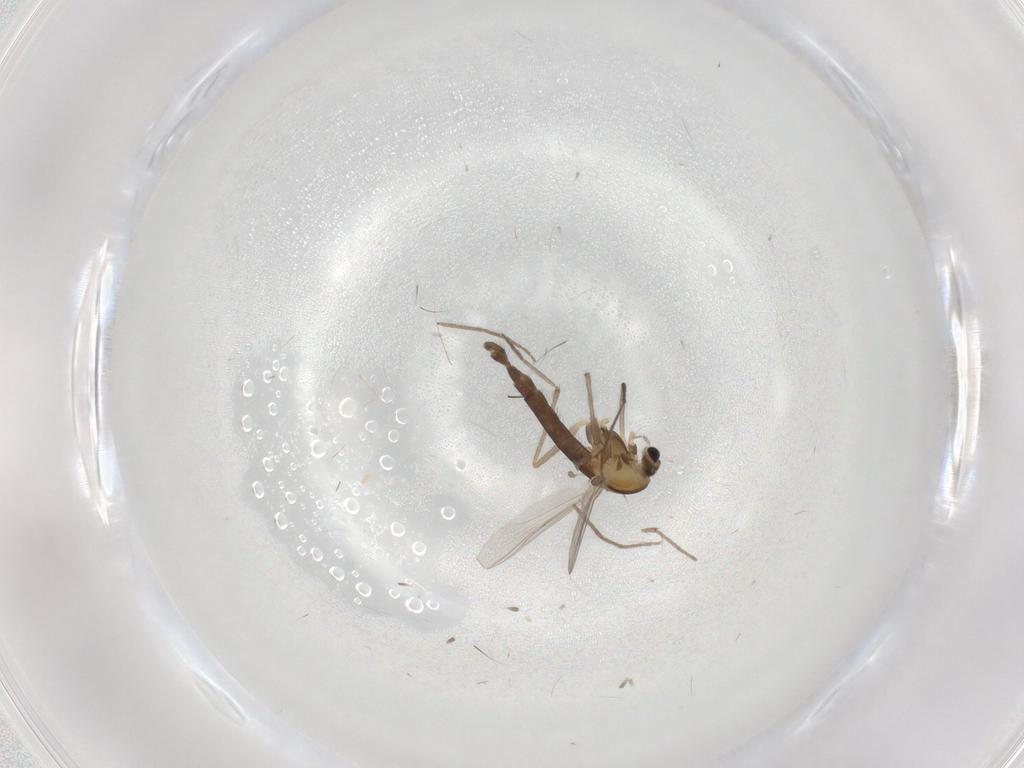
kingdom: Animalia
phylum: Arthropoda
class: Insecta
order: Diptera
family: Chironomidae
